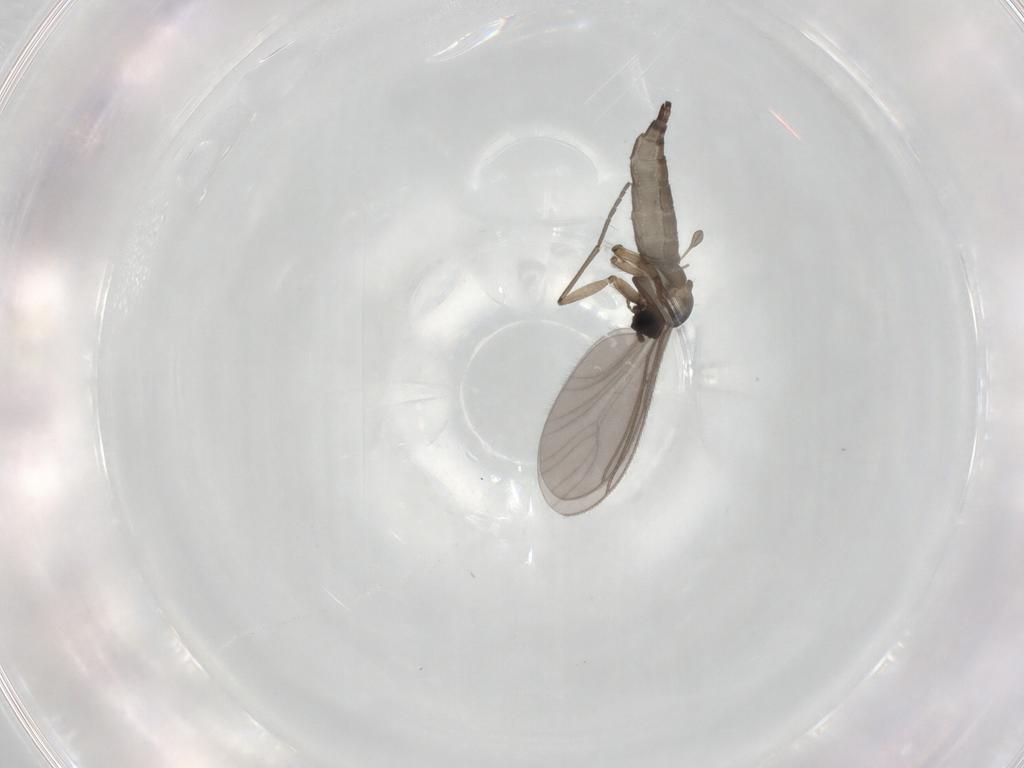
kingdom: Animalia
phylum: Arthropoda
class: Insecta
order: Diptera
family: Sciaridae
